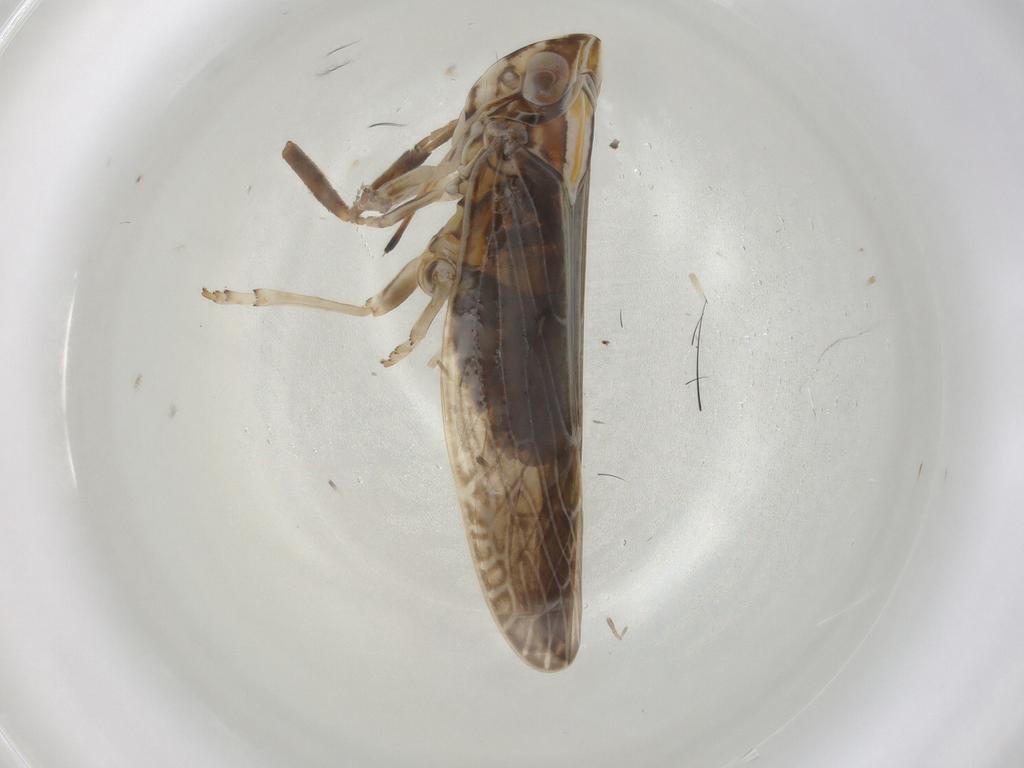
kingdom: Animalia
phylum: Arthropoda
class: Insecta
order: Hemiptera
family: Achilidae
